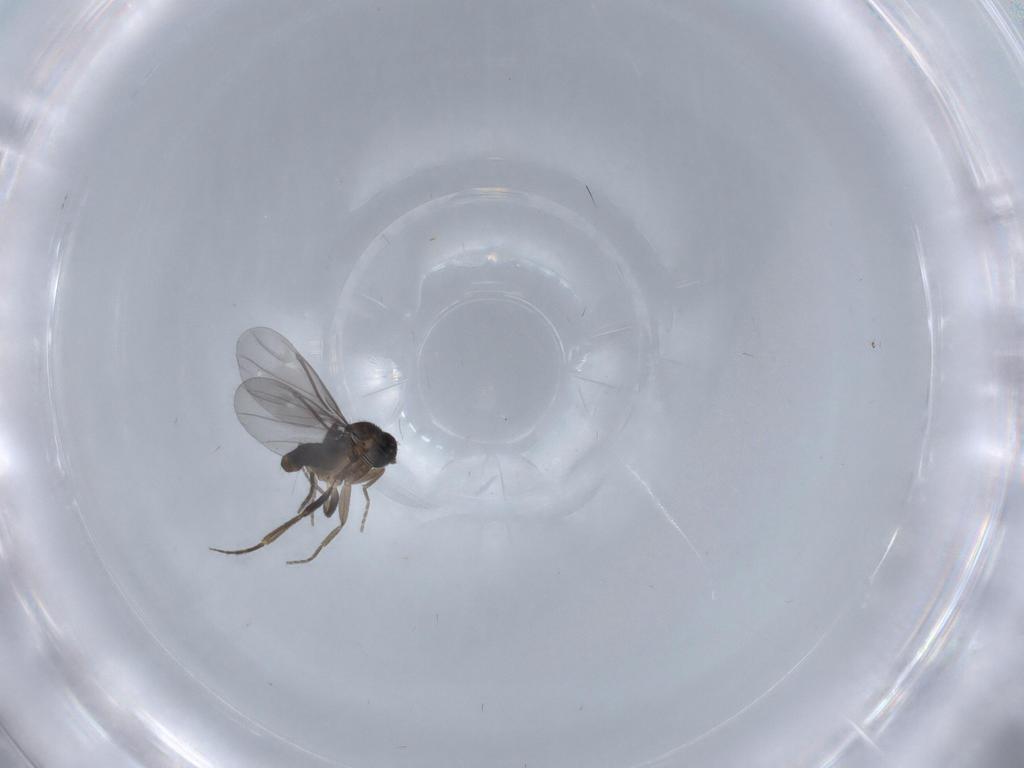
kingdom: Animalia
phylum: Arthropoda
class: Insecta
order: Diptera
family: Phoridae
